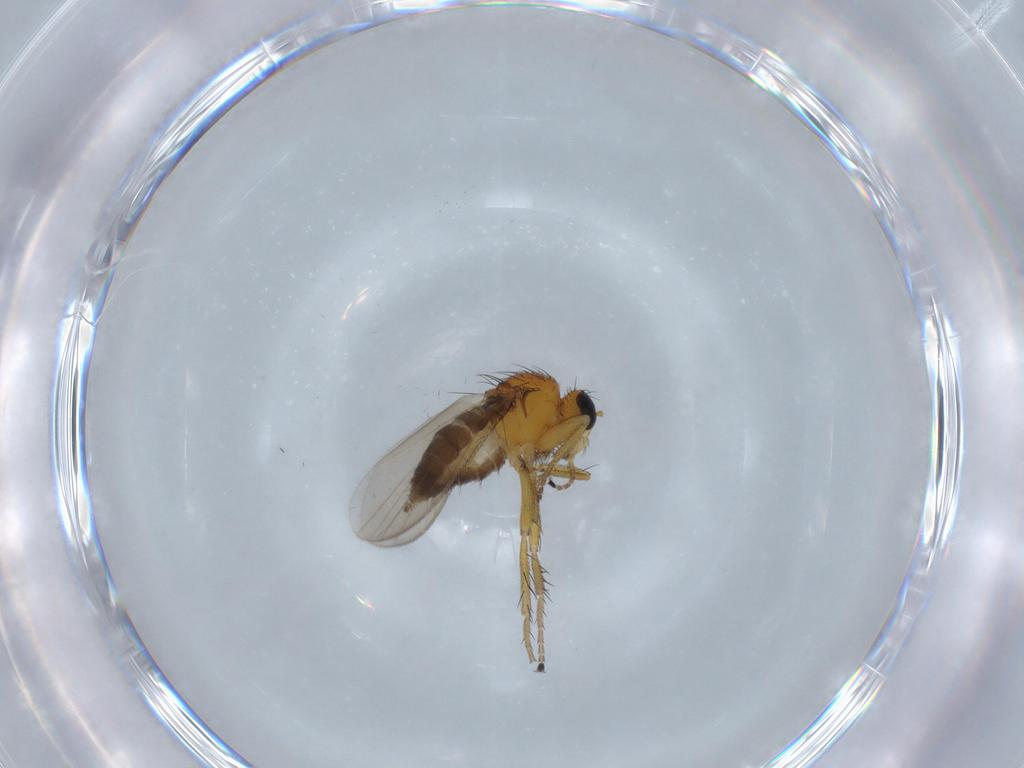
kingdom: Animalia
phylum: Arthropoda
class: Insecta
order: Diptera
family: Hybotidae
